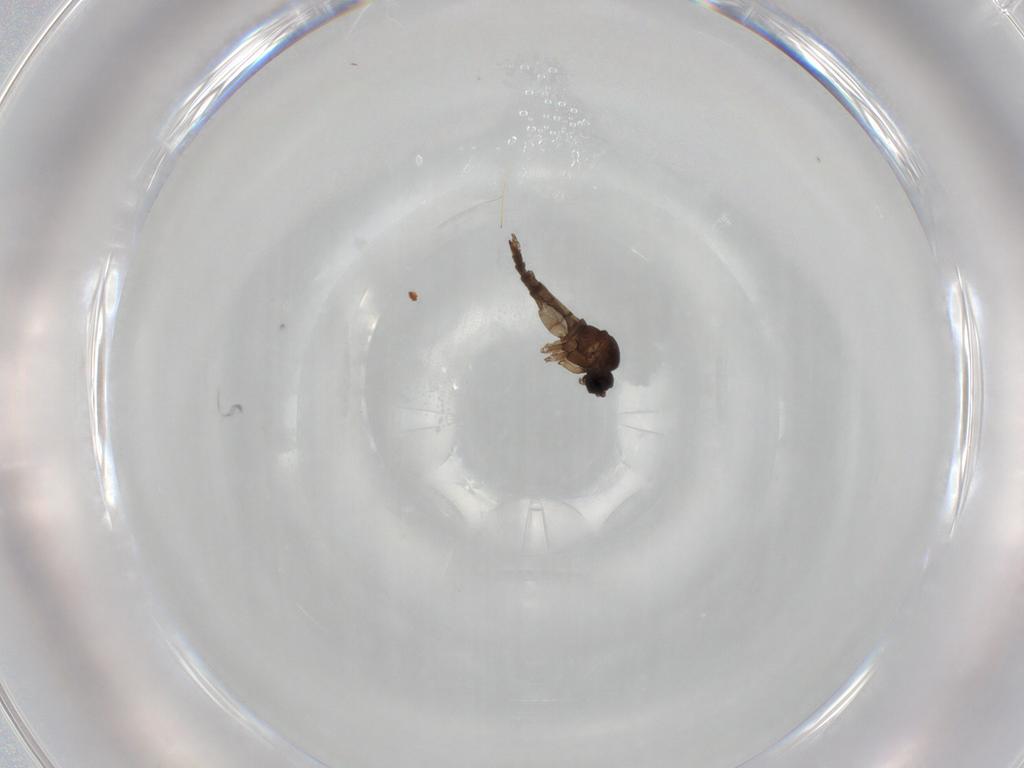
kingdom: Animalia
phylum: Arthropoda
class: Insecta
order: Diptera
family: Sciaridae
